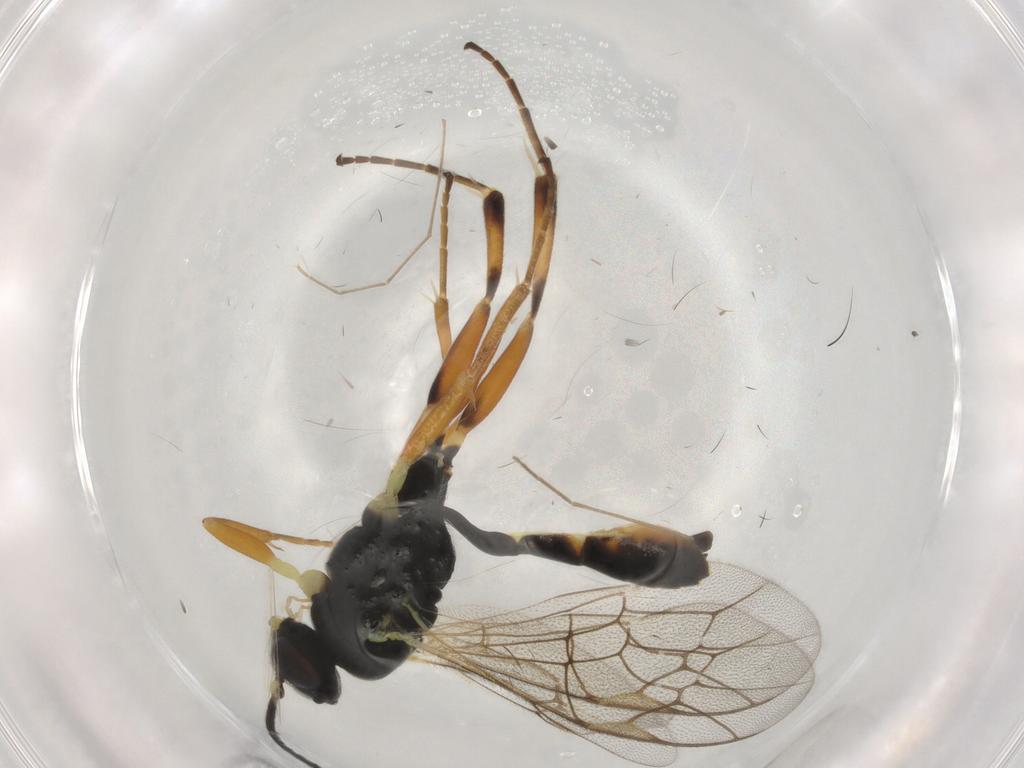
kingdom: Animalia
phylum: Arthropoda
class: Insecta
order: Hymenoptera
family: Ichneumonidae
